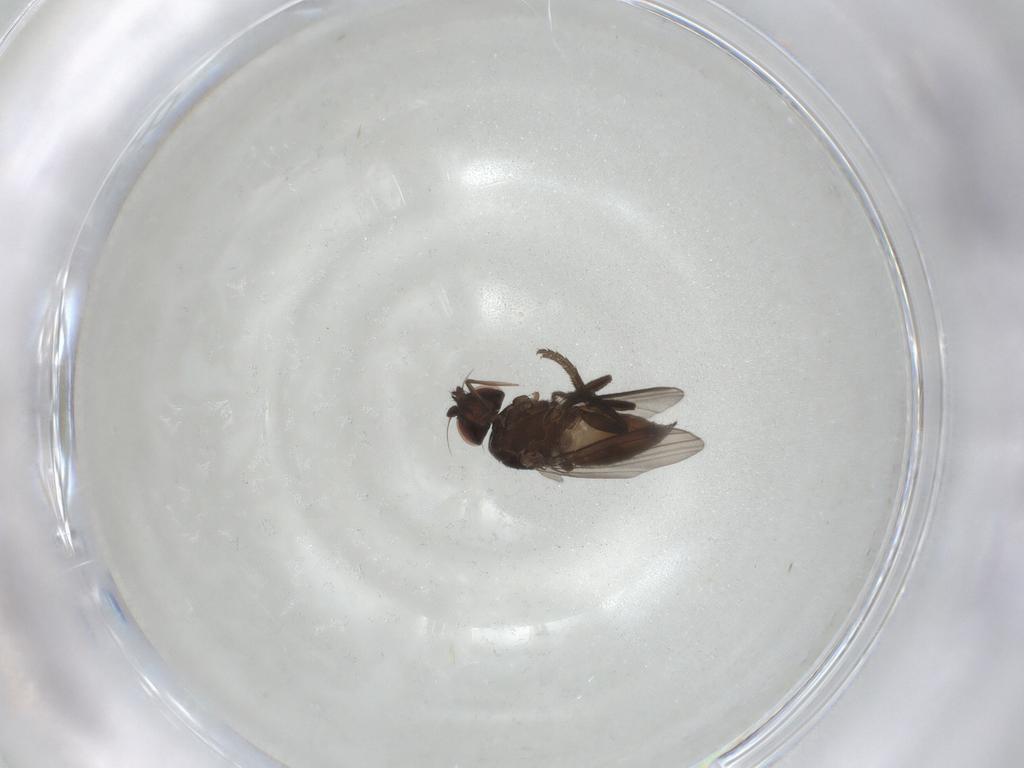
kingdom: Animalia
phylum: Arthropoda
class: Insecta
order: Diptera
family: Milichiidae
